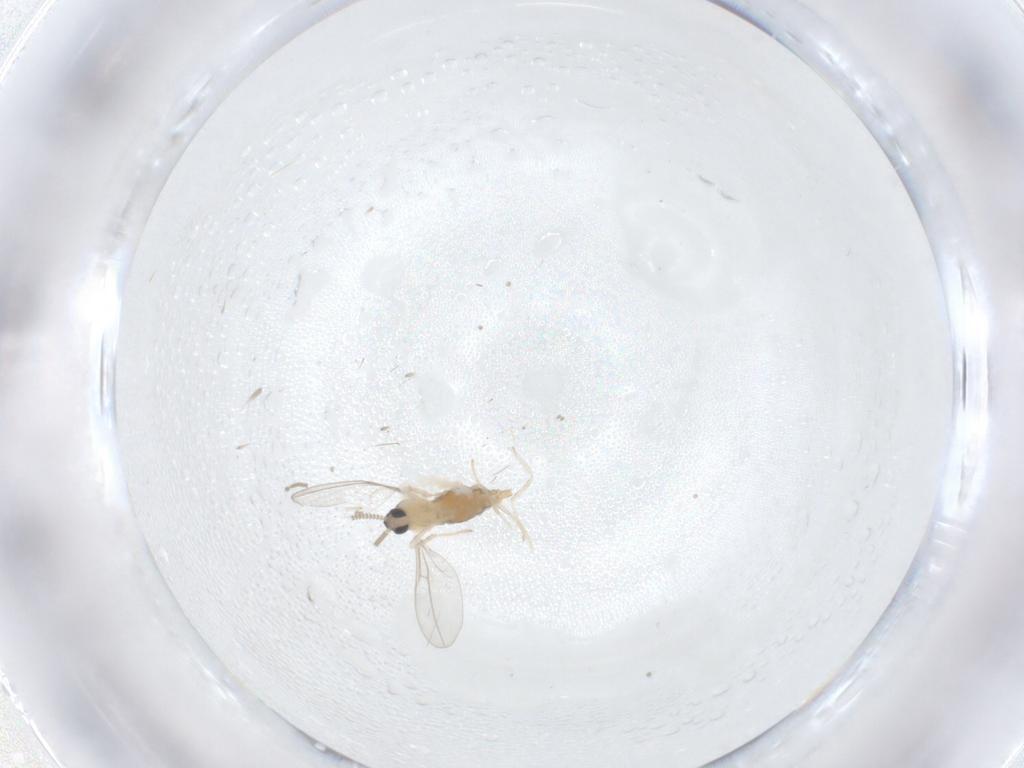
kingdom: Animalia
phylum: Arthropoda
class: Insecta
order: Diptera
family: Cecidomyiidae
